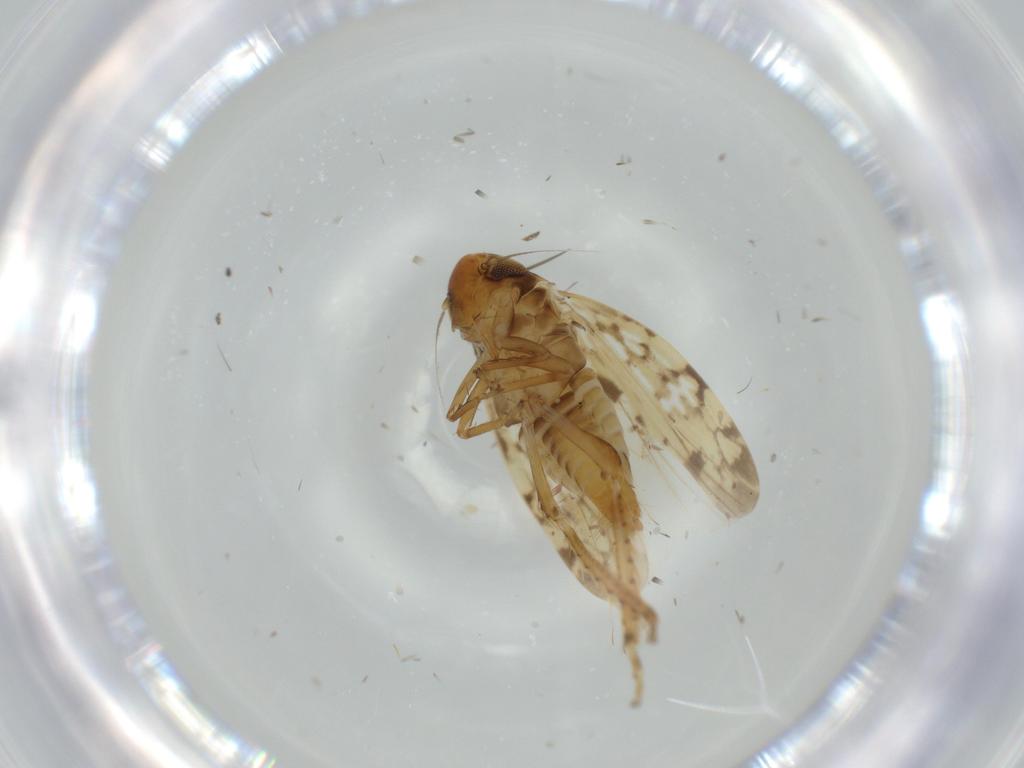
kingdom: Animalia
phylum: Arthropoda
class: Insecta
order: Hemiptera
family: Cicadellidae
